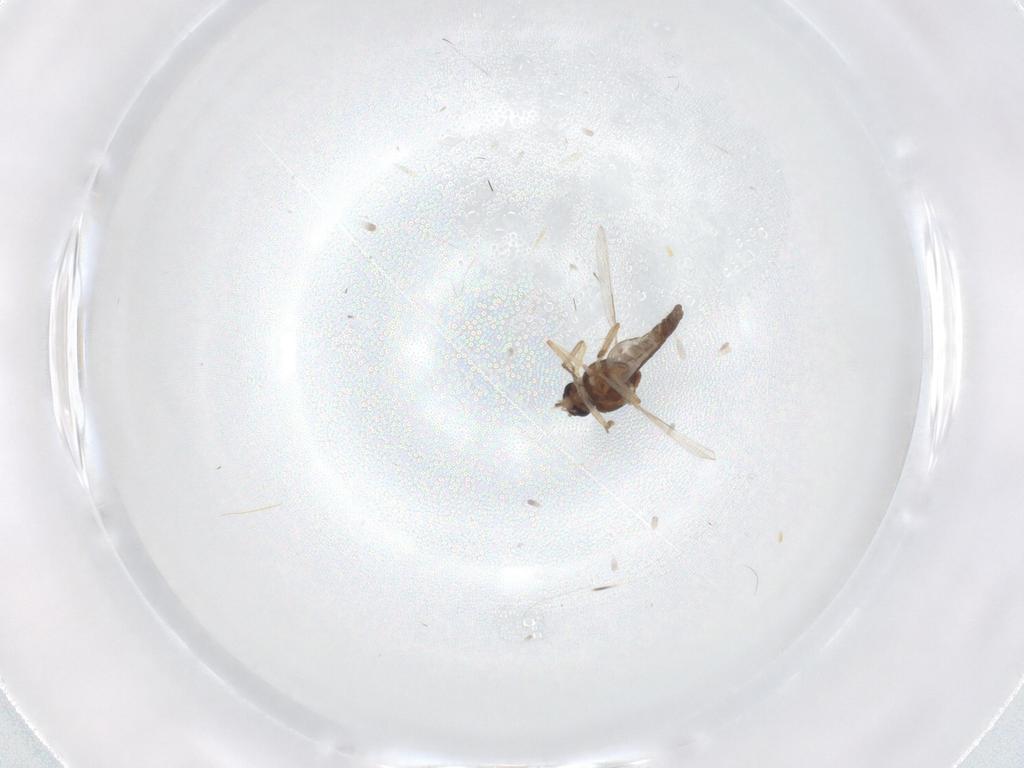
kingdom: Animalia
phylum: Arthropoda
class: Insecta
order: Diptera
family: Ceratopogonidae
